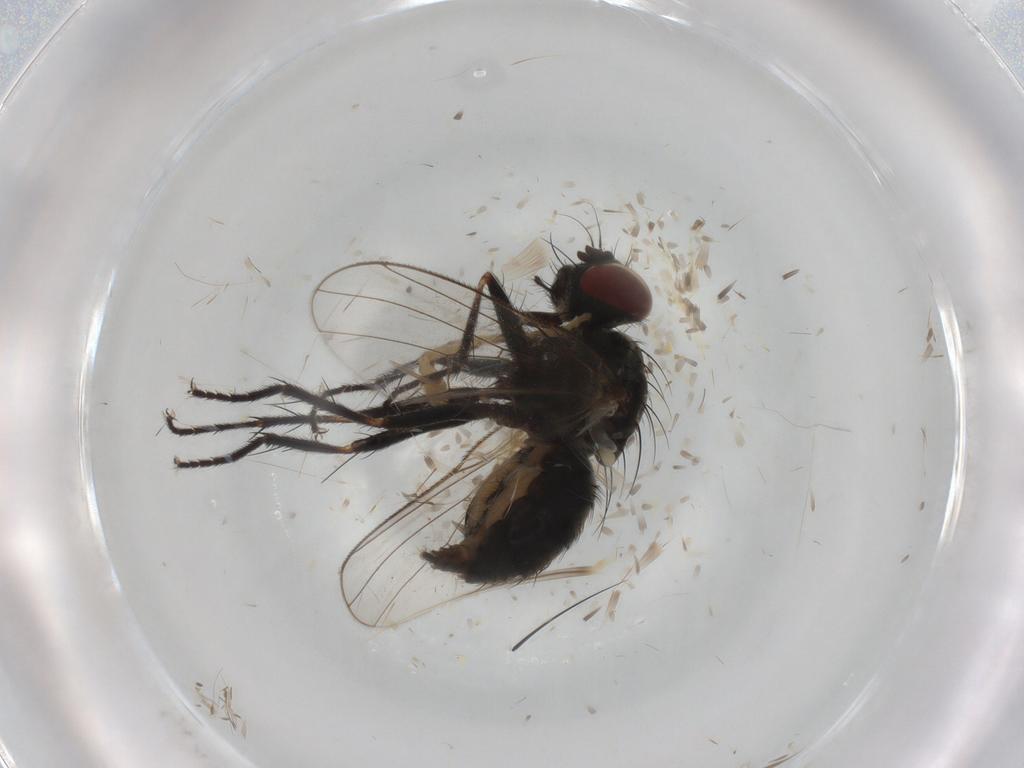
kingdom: Animalia
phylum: Arthropoda
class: Insecta
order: Diptera
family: Muscidae
